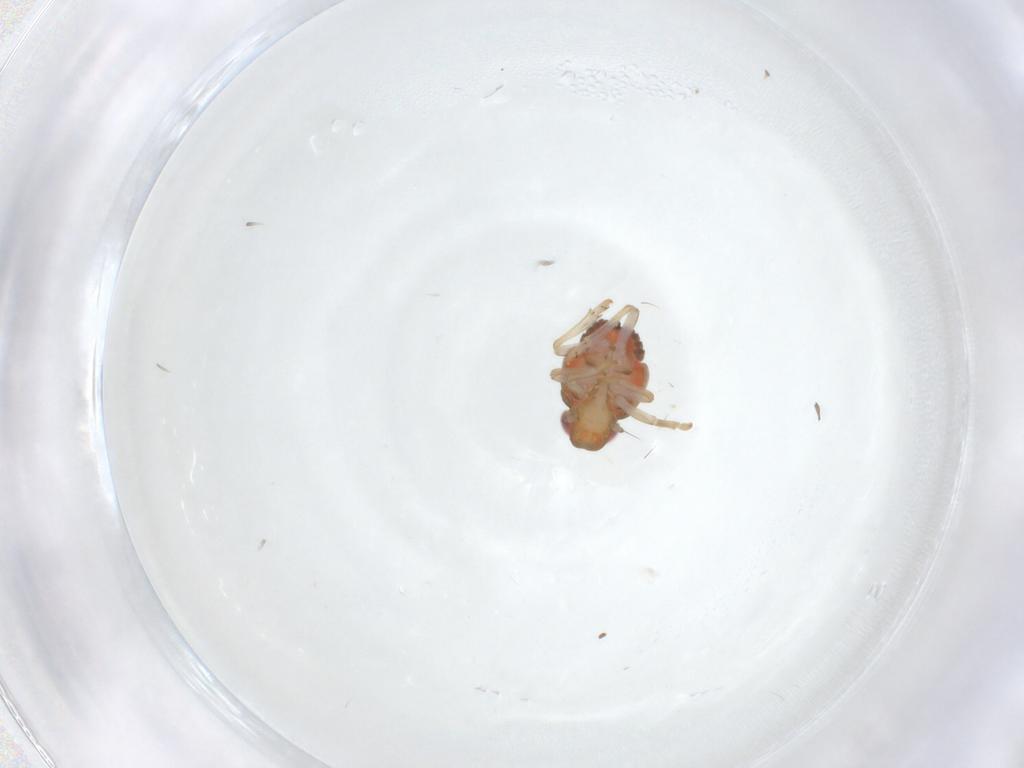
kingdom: Animalia
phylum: Arthropoda
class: Insecta
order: Hemiptera
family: Issidae
